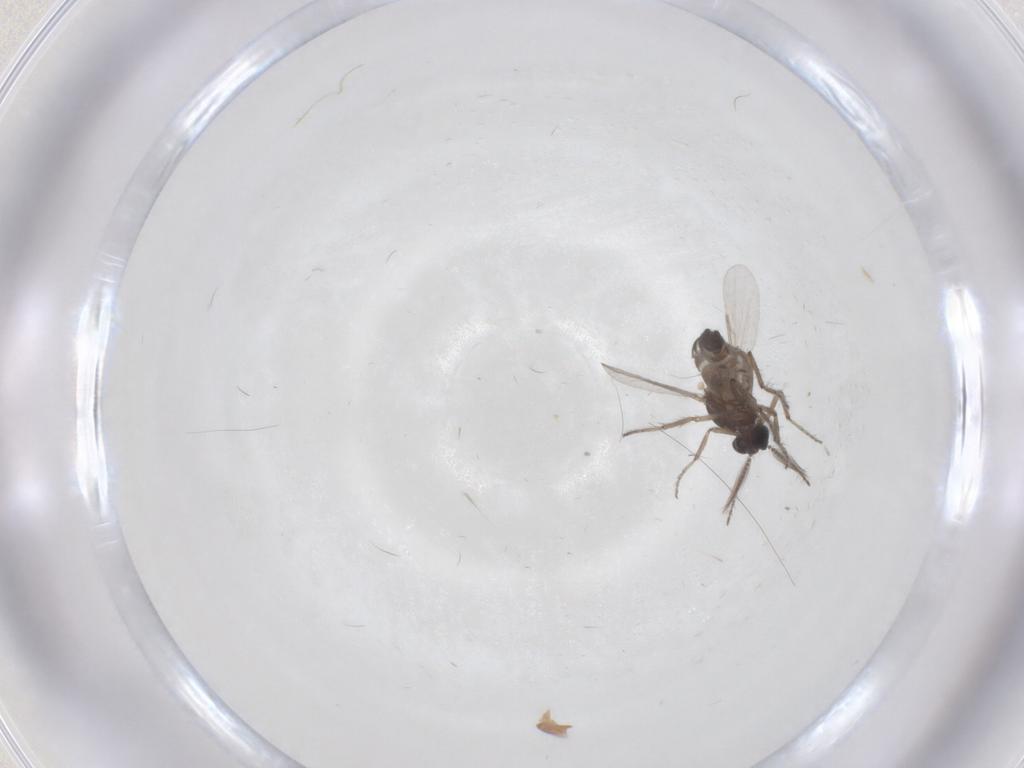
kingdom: Animalia
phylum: Arthropoda
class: Insecta
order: Diptera
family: Ceratopogonidae
